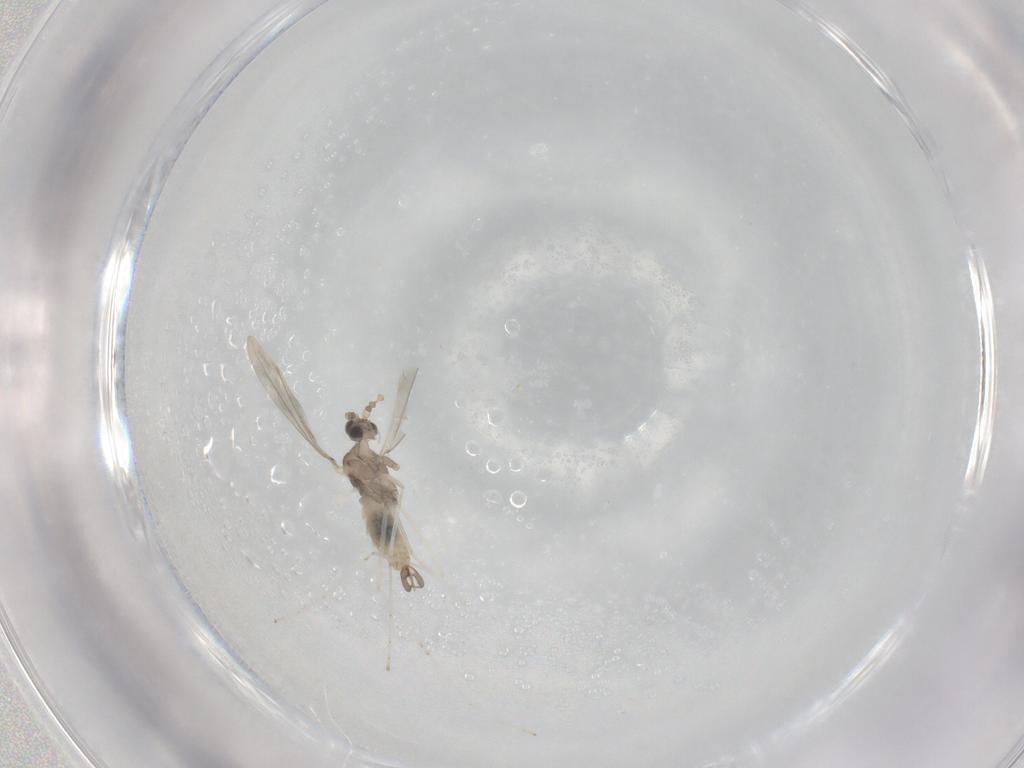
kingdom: Animalia
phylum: Arthropoda
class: Insecta
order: Diptera
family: Cecidomyiidae
